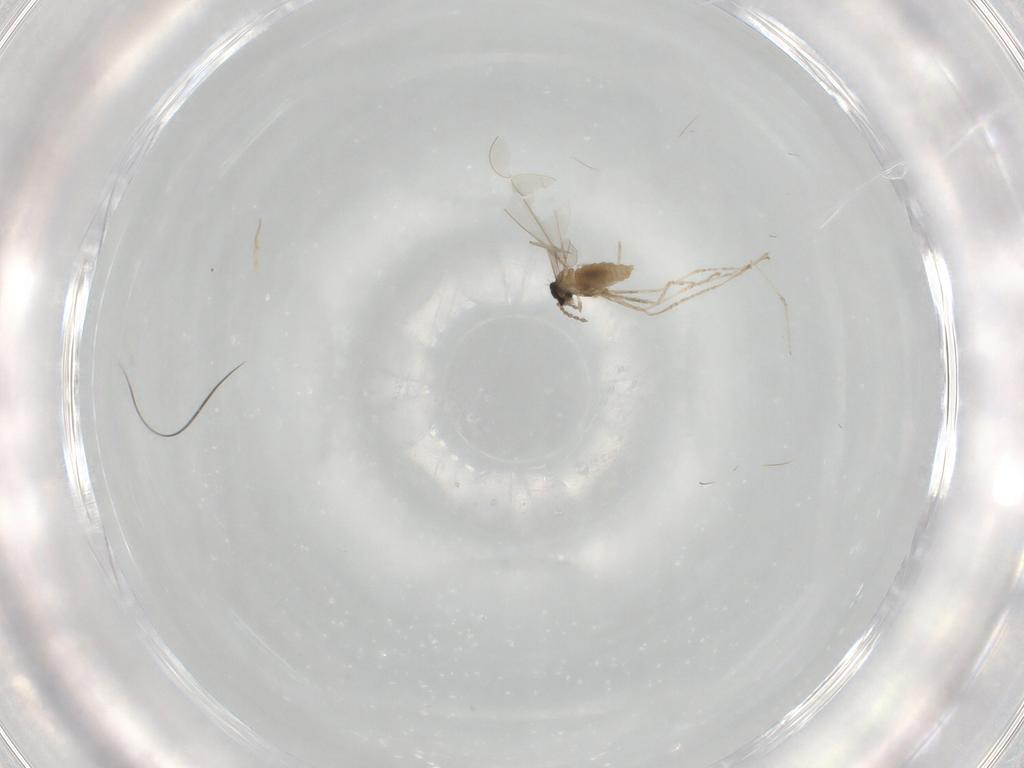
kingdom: Animalia
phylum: Arthropoda
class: Insecta
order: Diptera
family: Cecidomyiidae
